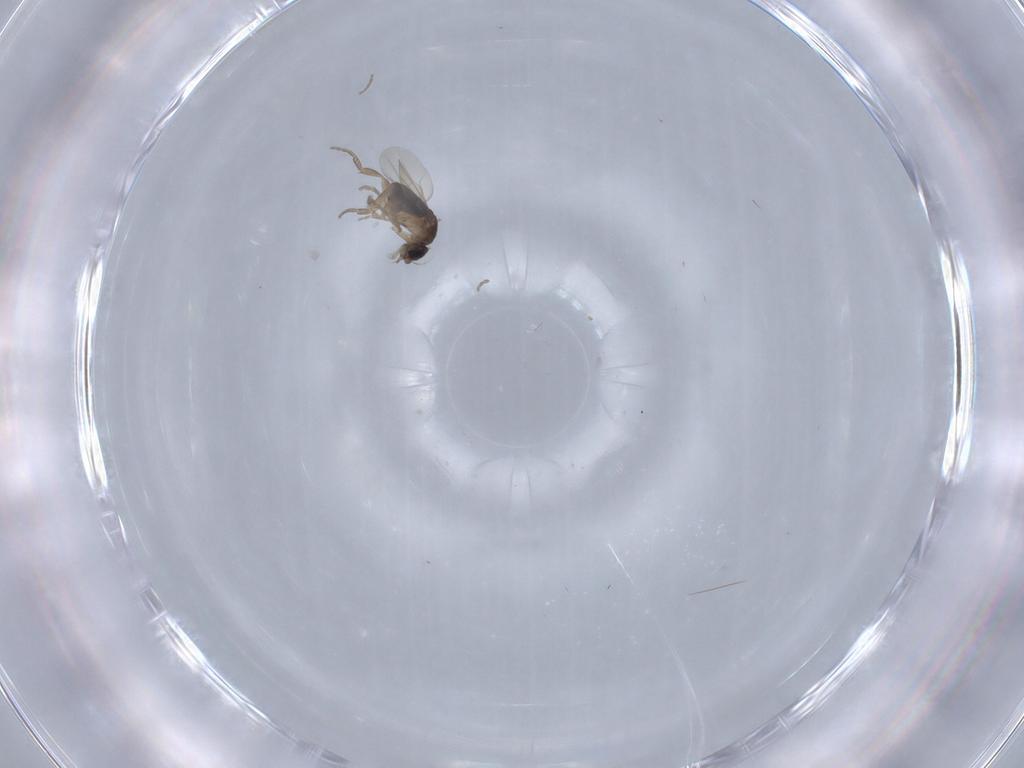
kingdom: Animalia
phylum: Arthropoda
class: Insecta
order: Diptera
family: Phoridae
